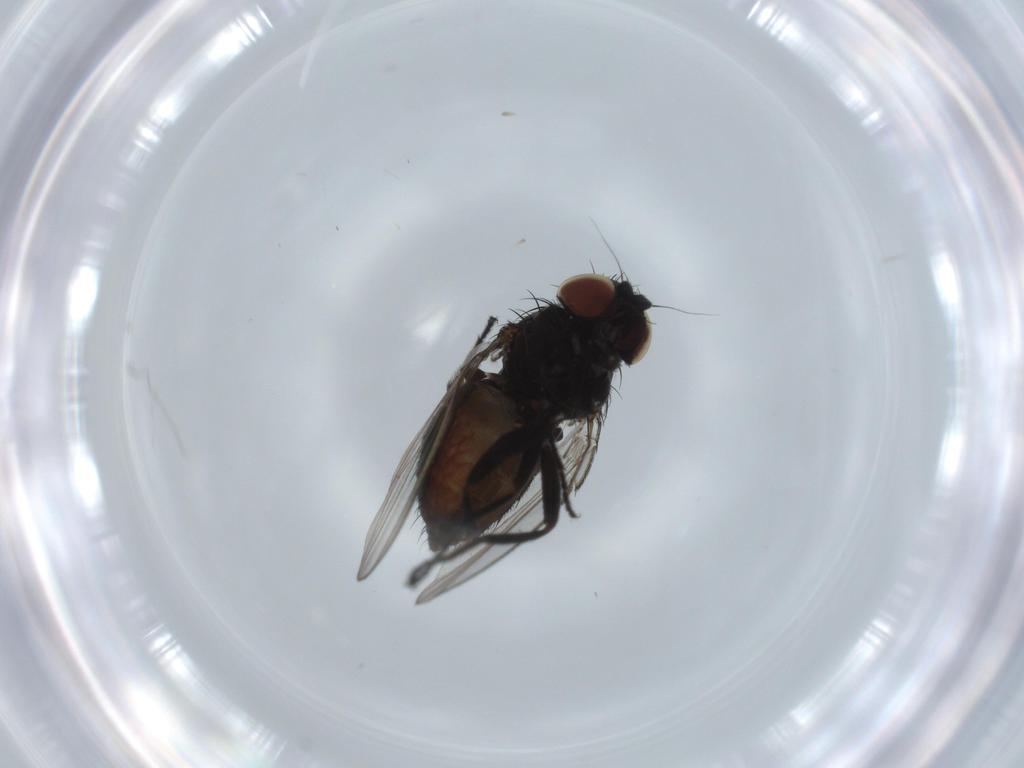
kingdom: Animalia
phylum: Arthropoda
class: Insecta
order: Diptera
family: Milichiidae
